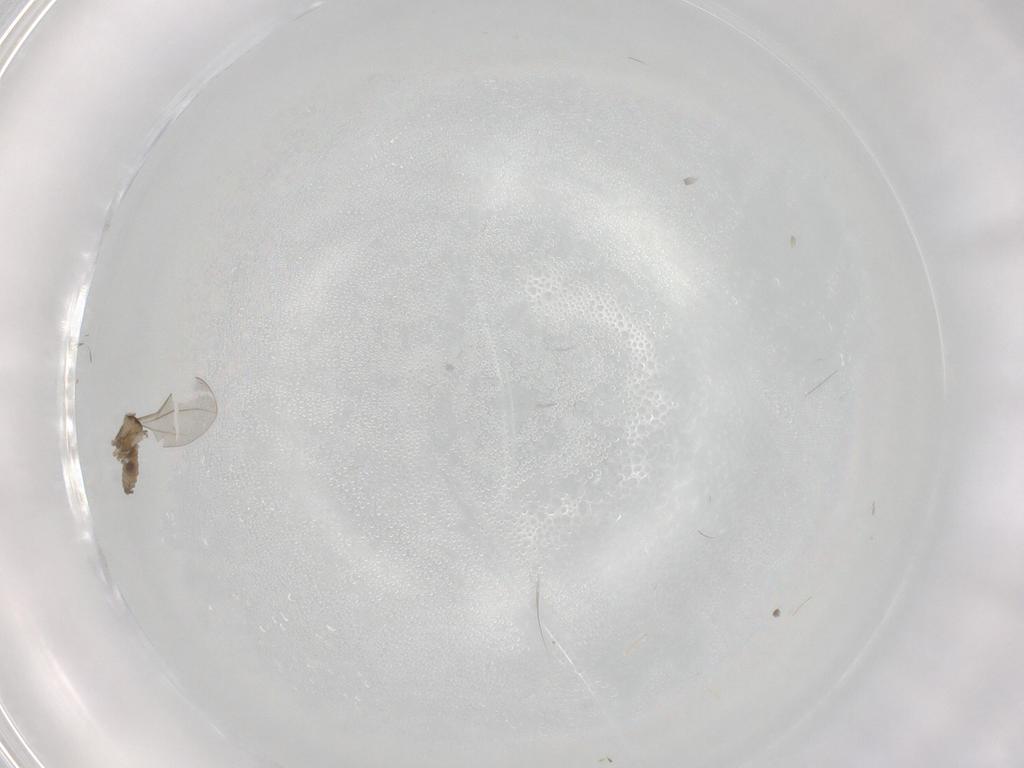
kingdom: Animalia
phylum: Arthropoda
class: Insecta
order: Diptera
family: Cecidomyiidae
